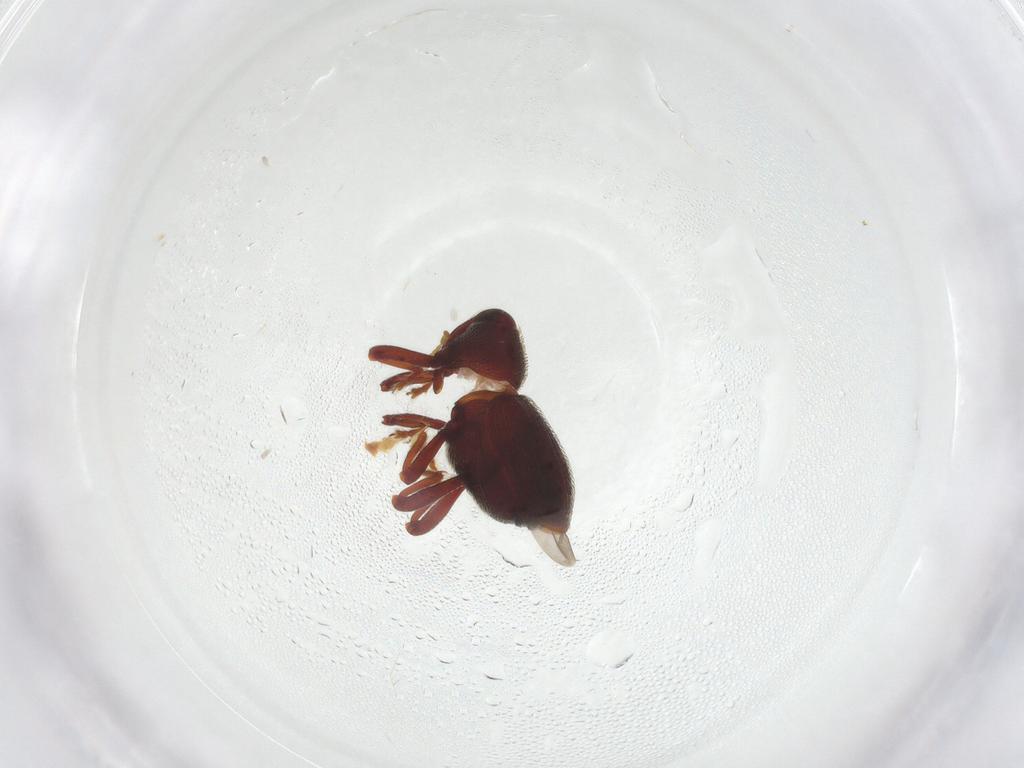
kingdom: Animalia
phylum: Arthropoda
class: Insecta
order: Coleoptera
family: Curculionidae
